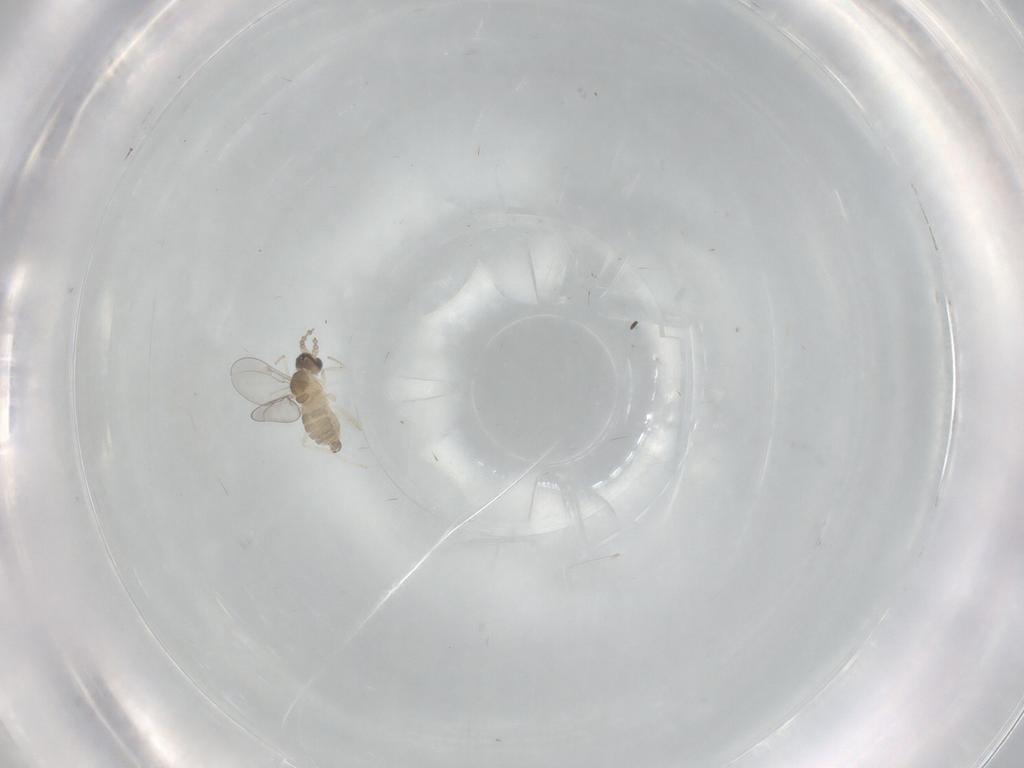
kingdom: Animalia
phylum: Arthropoda
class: Insecta
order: Diptera
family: Cecidomyiidae
